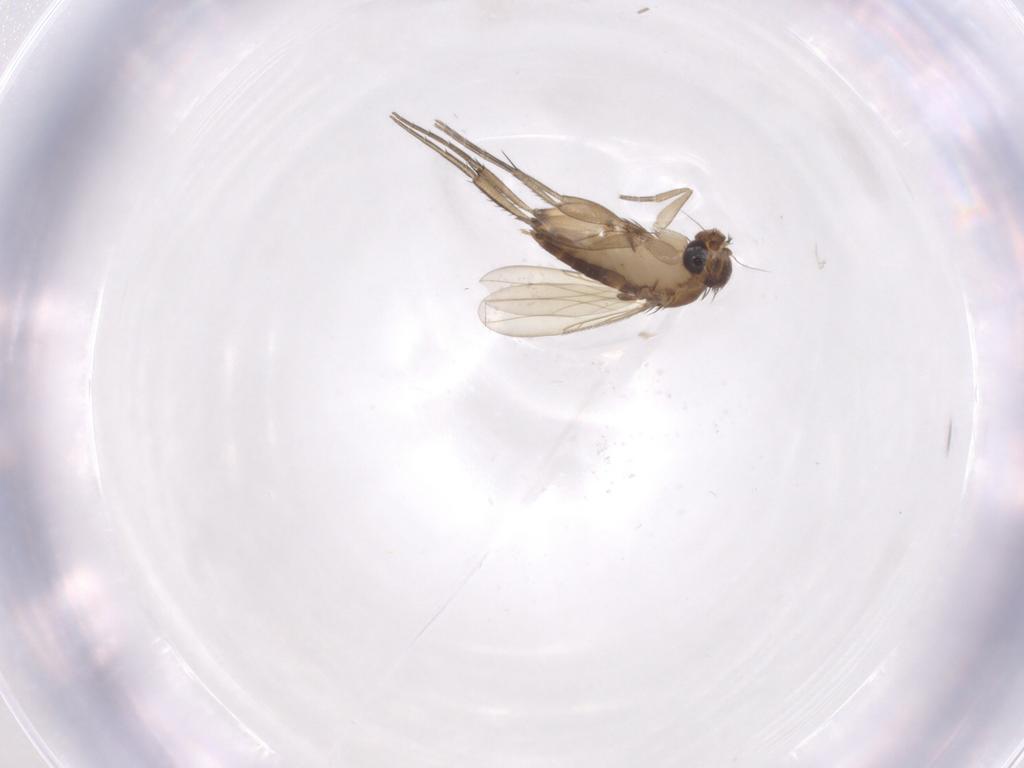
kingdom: Animalia
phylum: Arthropoda
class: Insecta
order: Diptera
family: Phoridae
